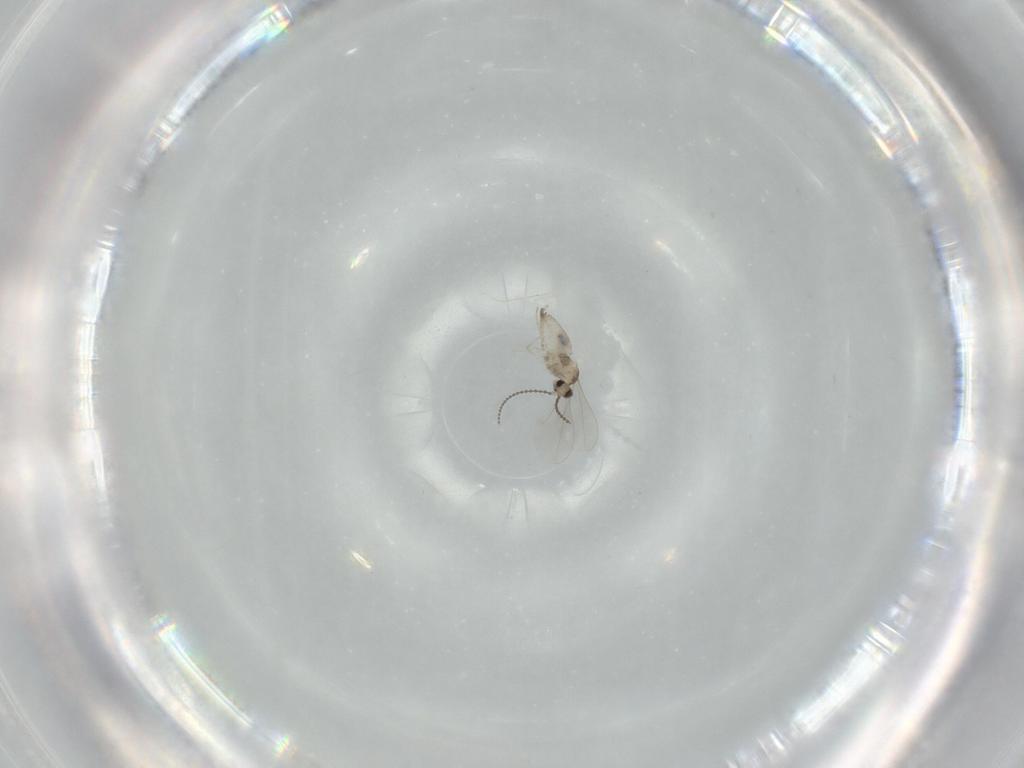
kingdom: Animalia
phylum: Arthropoda
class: Insecta
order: Diptera
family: Cecidomyiidae
